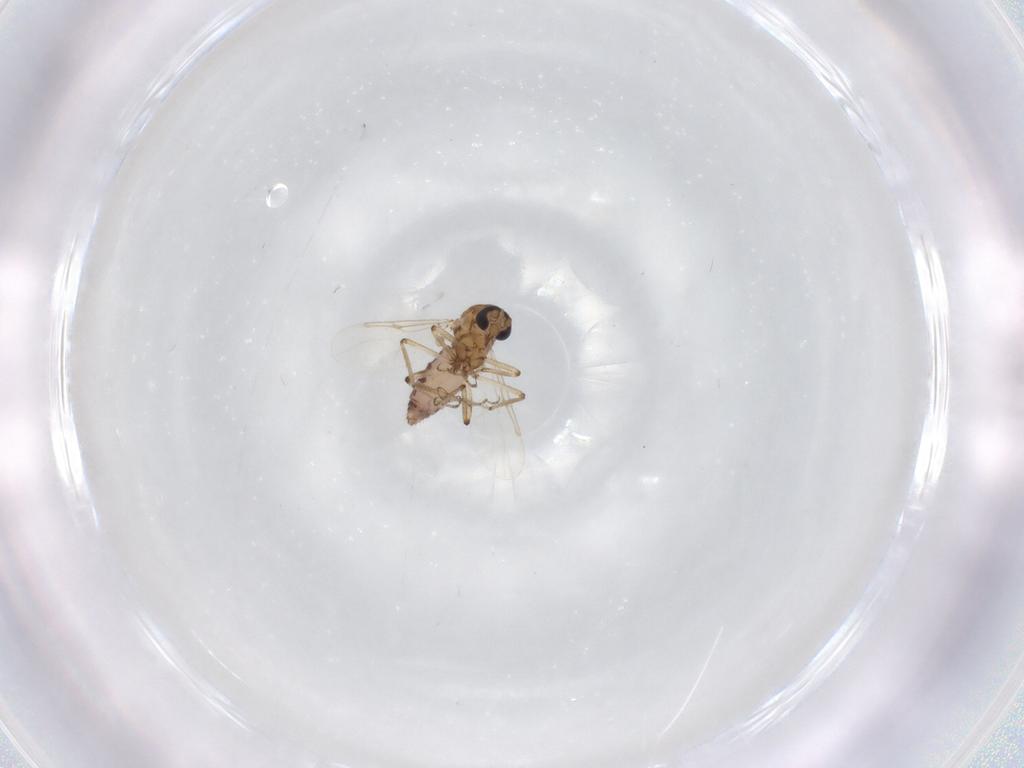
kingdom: Animalia
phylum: Arthropoda
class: Insecta
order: Diptera
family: Ceratopogonidae
